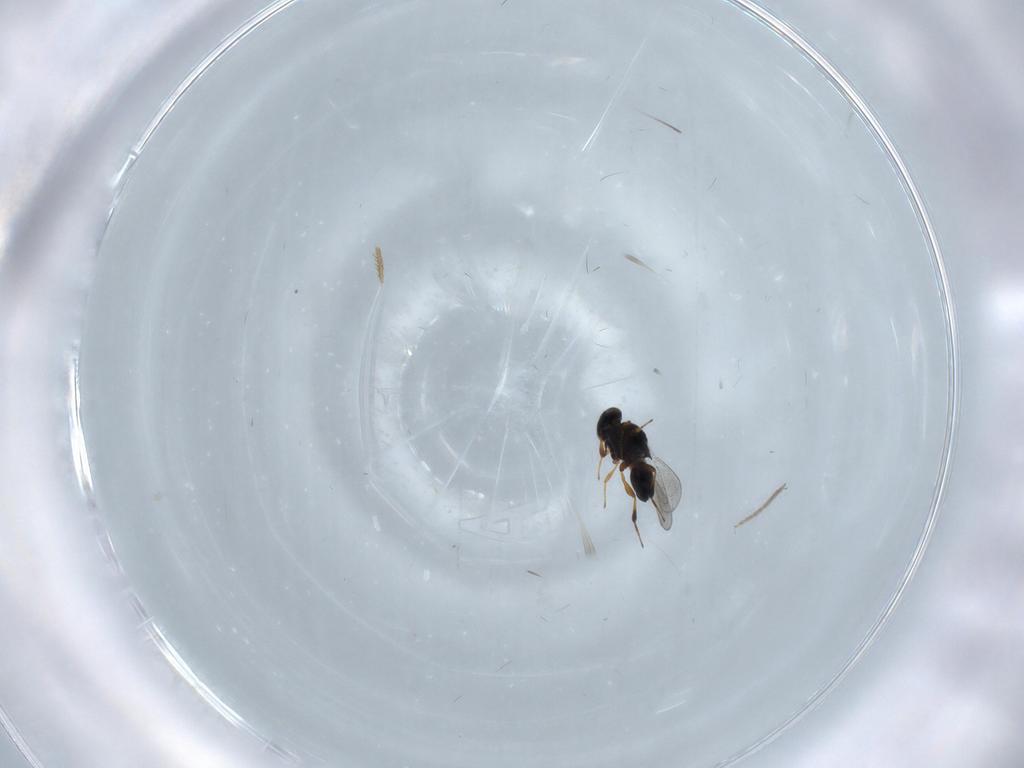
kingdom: Animalia
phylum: Arthropoda
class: Insecta
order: Hymenoptera
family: Platygastridae
